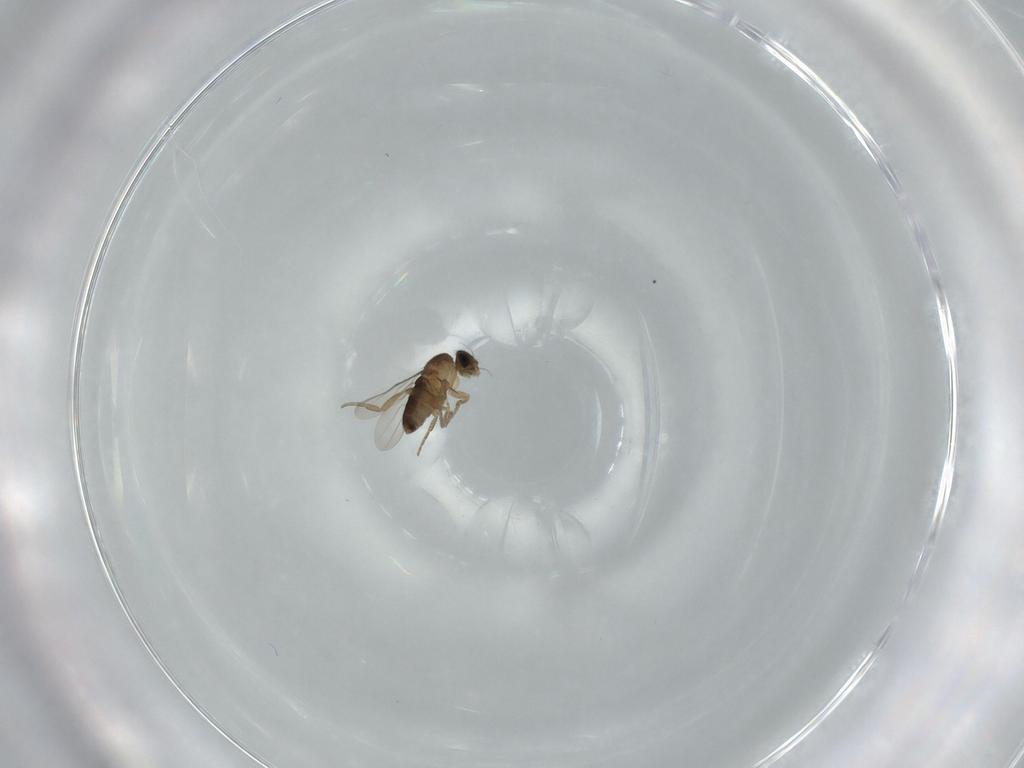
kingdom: Animalia
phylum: Arthropoda
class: Insecta
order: Diptera
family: Phoridae
